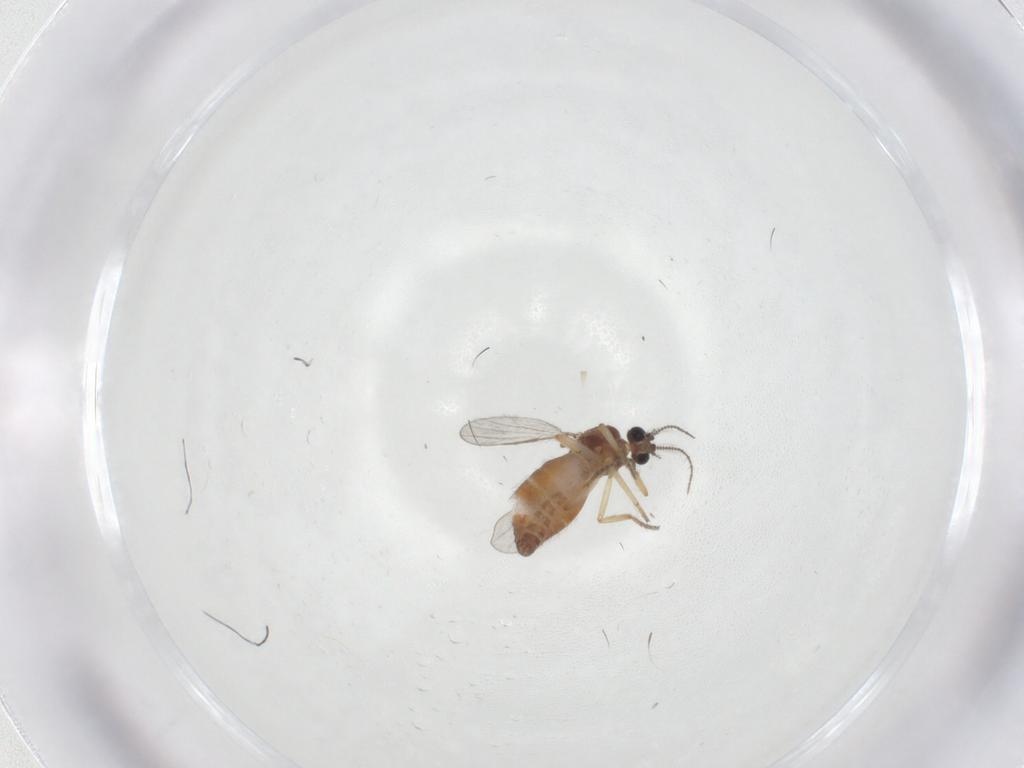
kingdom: Animalia
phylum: Arthropoda
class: Insecta
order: Diptera
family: Ceratopogonidae
